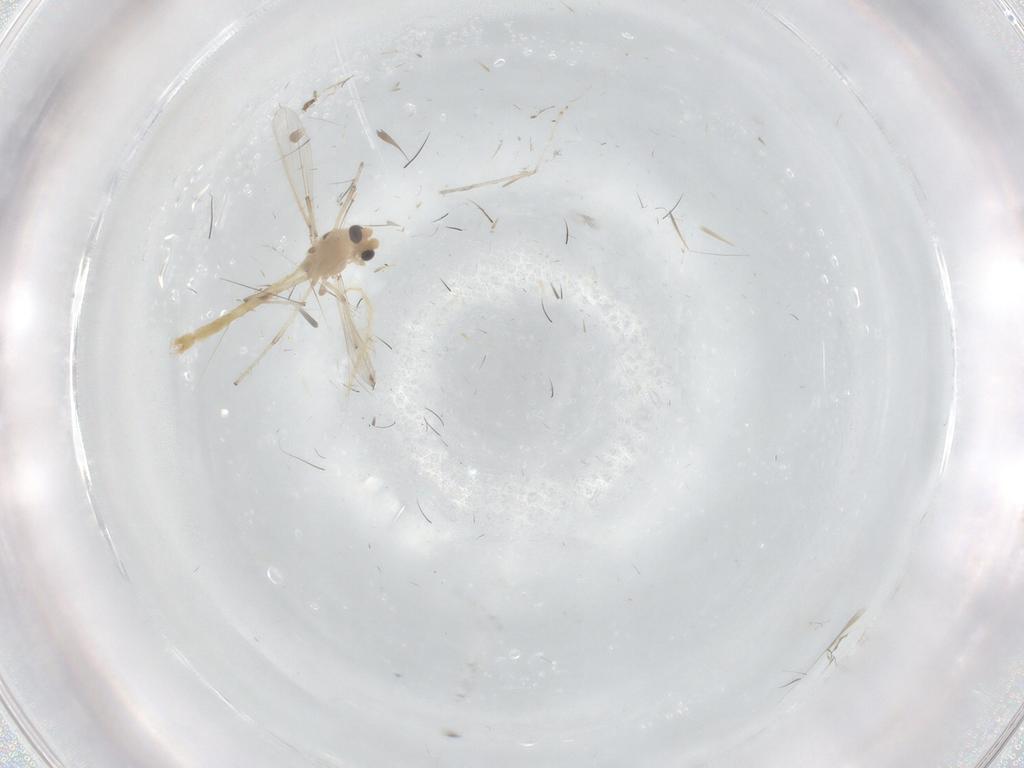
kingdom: Animalia
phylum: Arthropoda
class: Insecta
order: Diptera
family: Chironomidae
